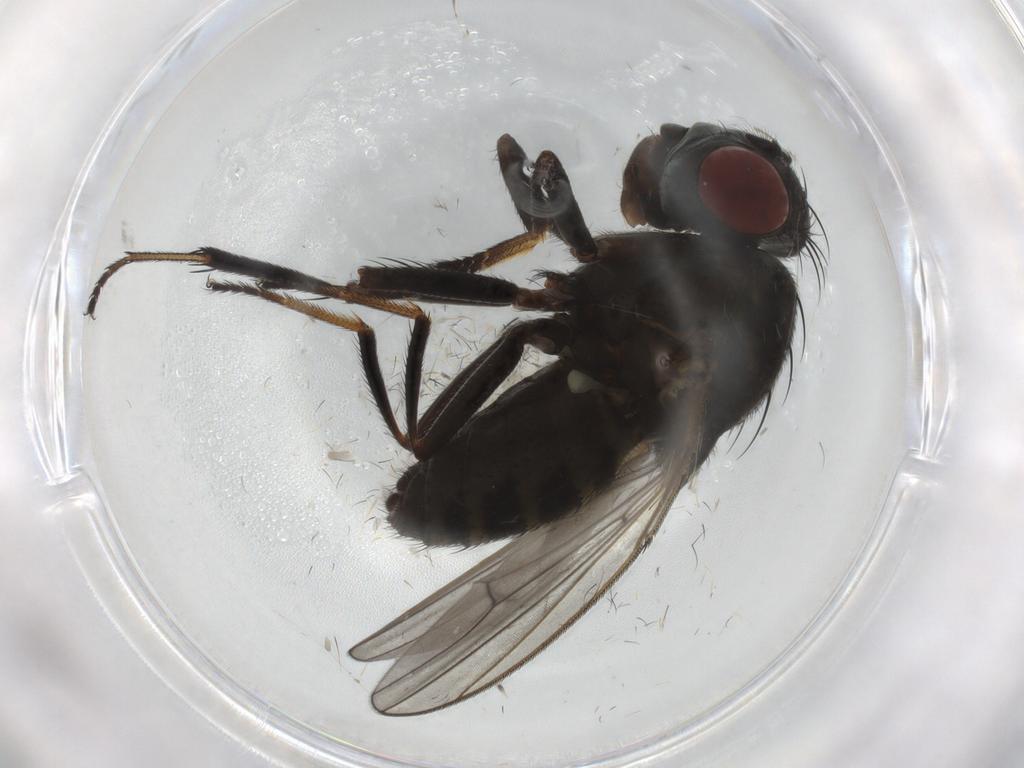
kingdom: Animalia
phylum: Arthropoda
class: Insecta
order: Diptera
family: Ephydridae
